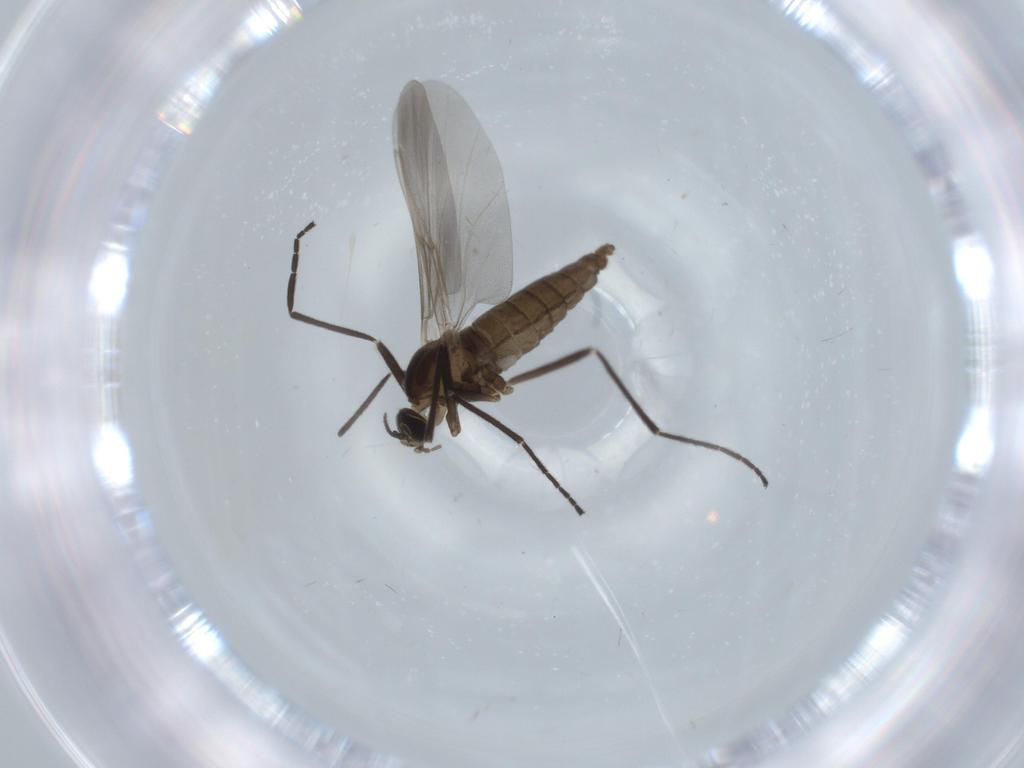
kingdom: Animalia
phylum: Arthropoda
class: Insecta
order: Diptera
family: Cecidomyiidae
